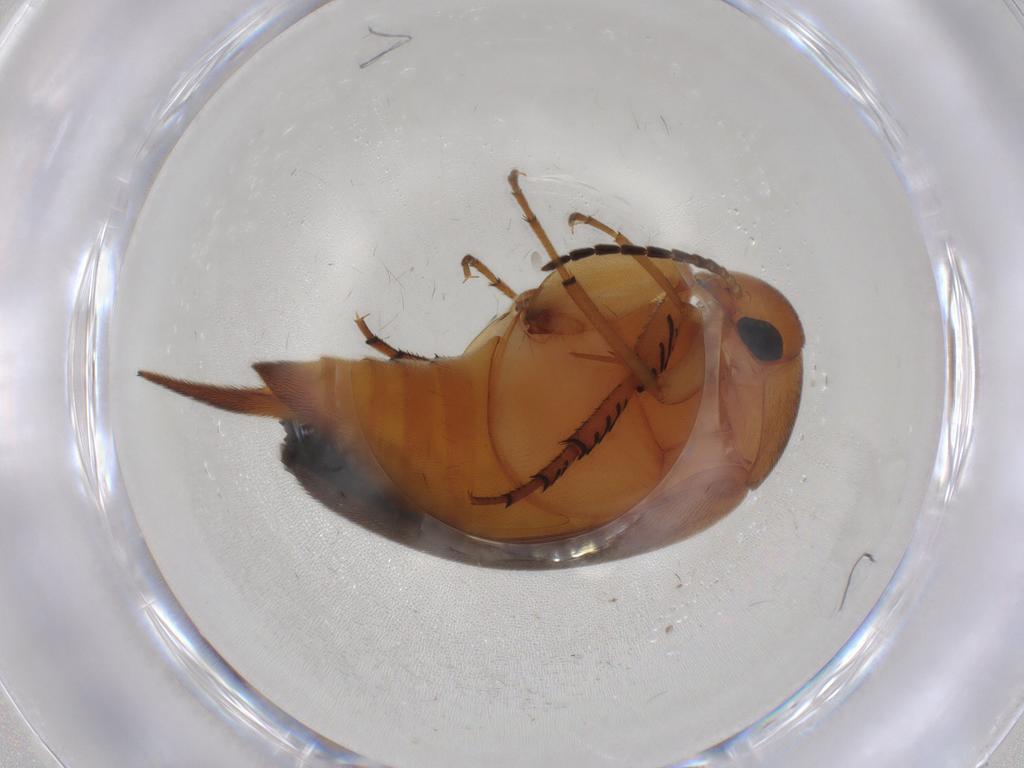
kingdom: Animalia
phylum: Arthropoda
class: Insecta
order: Coleoptera
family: Mordellidae
